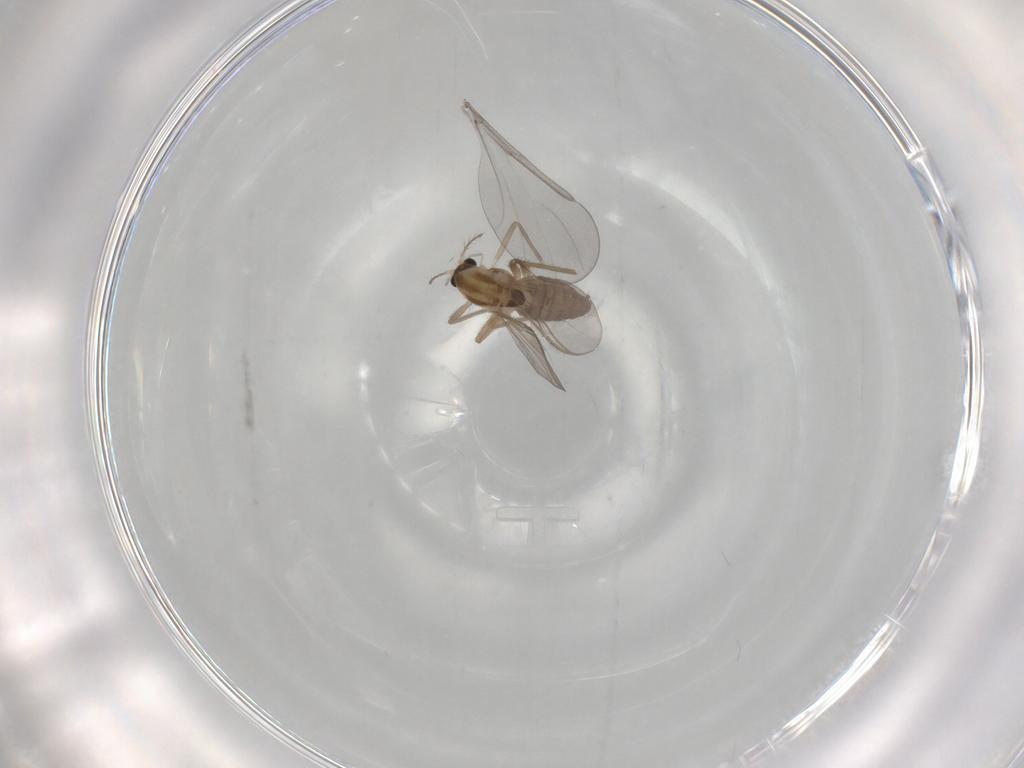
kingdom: Animalia
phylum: Arthropoda
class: Insecta
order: Diptera
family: Chironomidae
